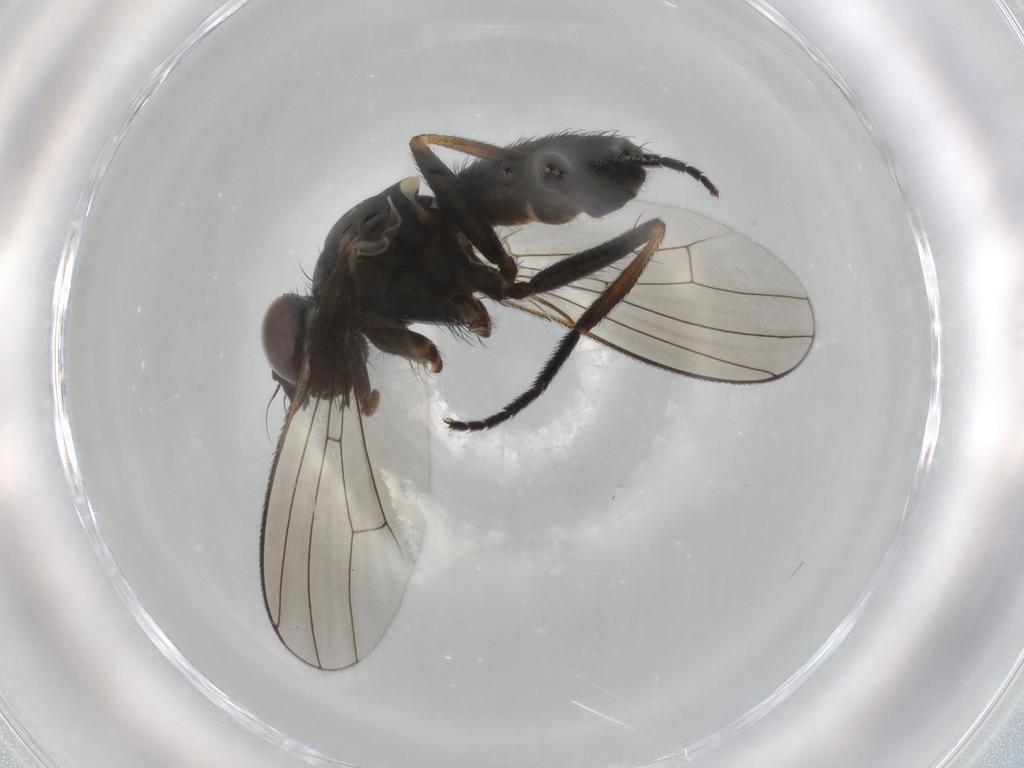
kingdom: Animalia
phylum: Arthropoda
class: Insecta
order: Diptera
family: Muscidae
